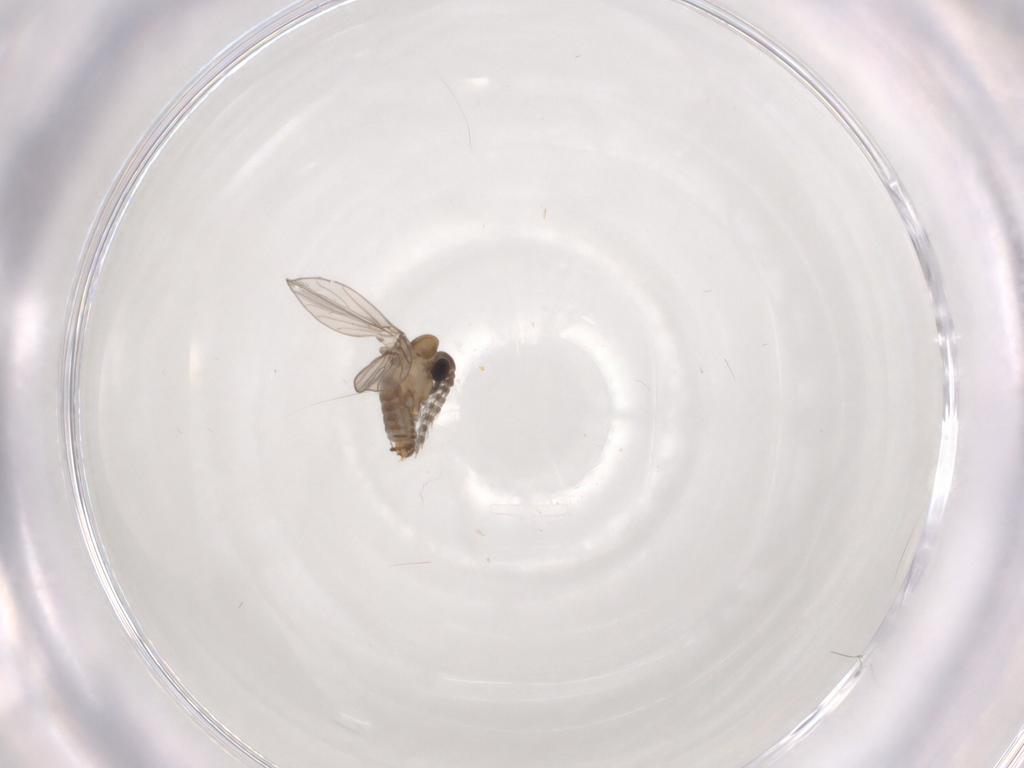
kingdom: Animalia
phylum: Arthropoda
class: Insecta
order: Diptera
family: Psychodidae
